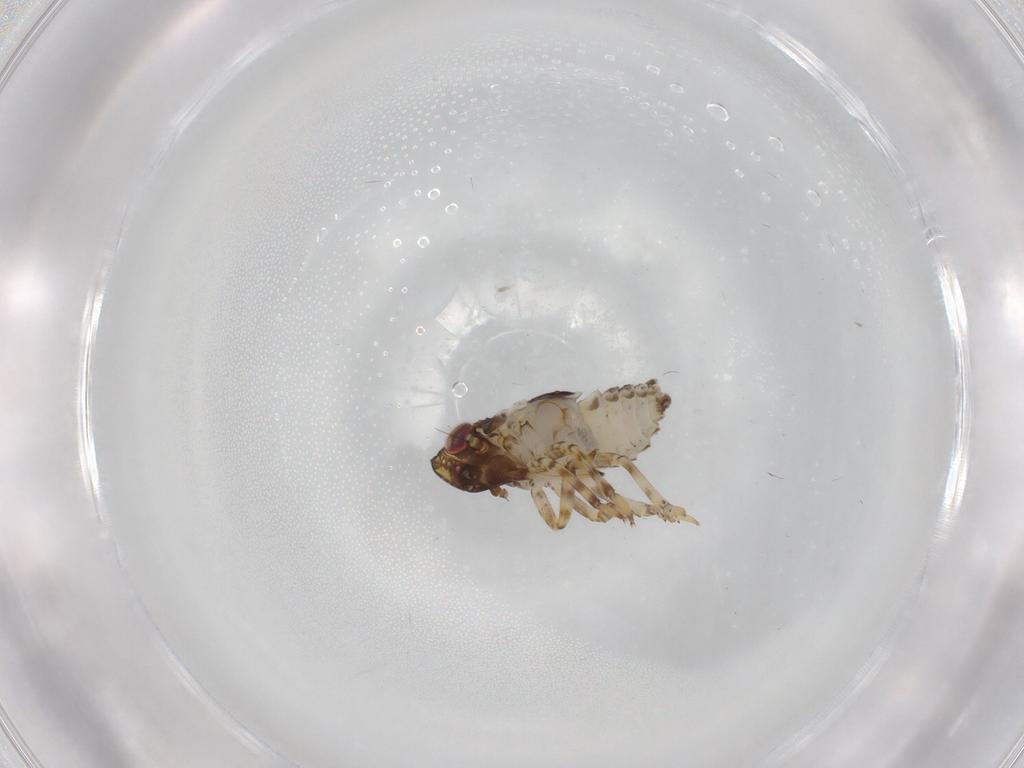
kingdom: Animalia
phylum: Arthropoda
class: Insecta
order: Hemiptera
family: Issidae
